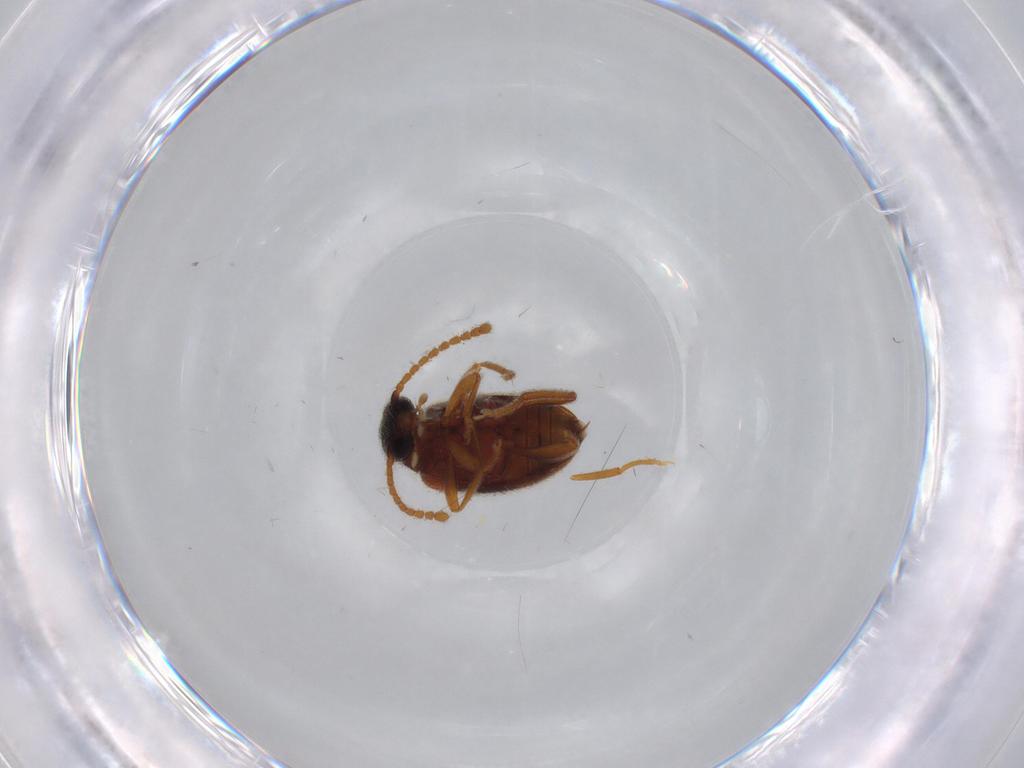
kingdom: Animalia
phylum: Arthropoda
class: Insecta
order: Coleoptera
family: Aderidae
